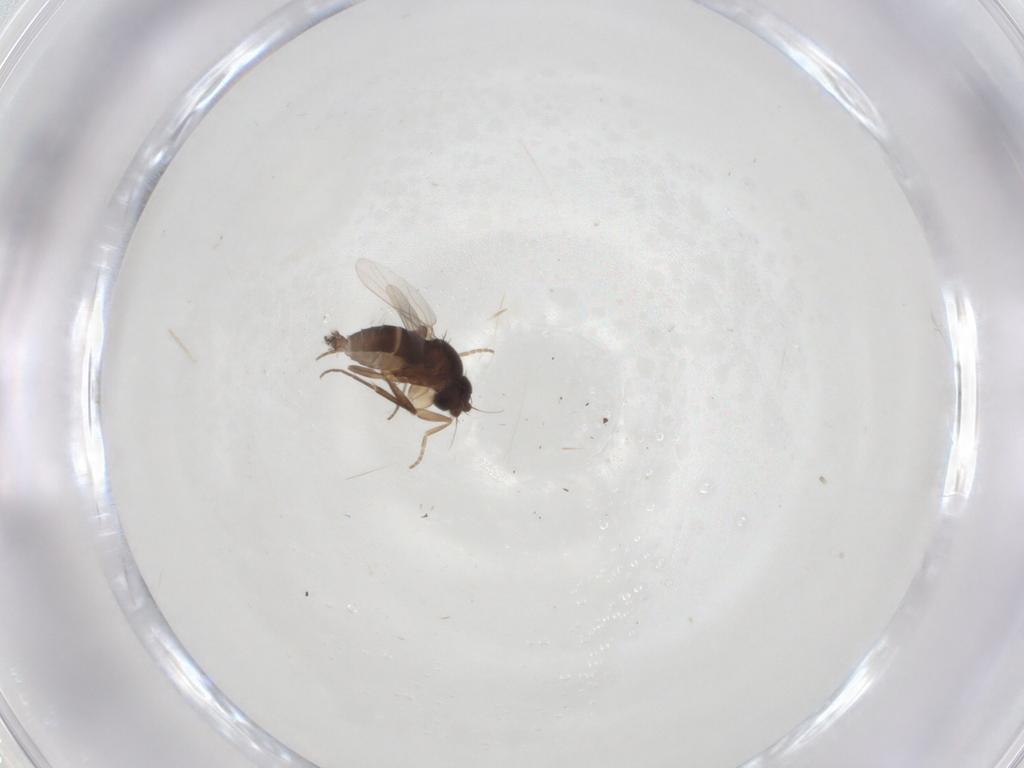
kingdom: Animalia
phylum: Arthropoda
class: Insecta
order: Diptera
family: Phoridae
